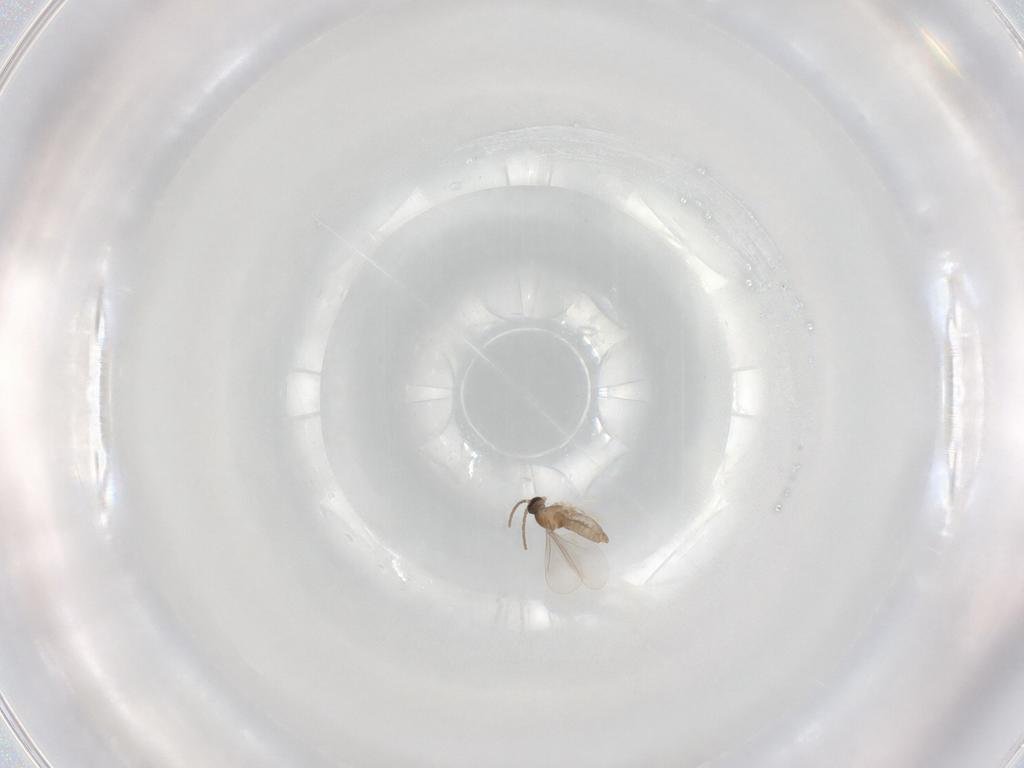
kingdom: Animalia
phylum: Arthropoda
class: Insecta
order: Diptera
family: Cecidomyiidae
